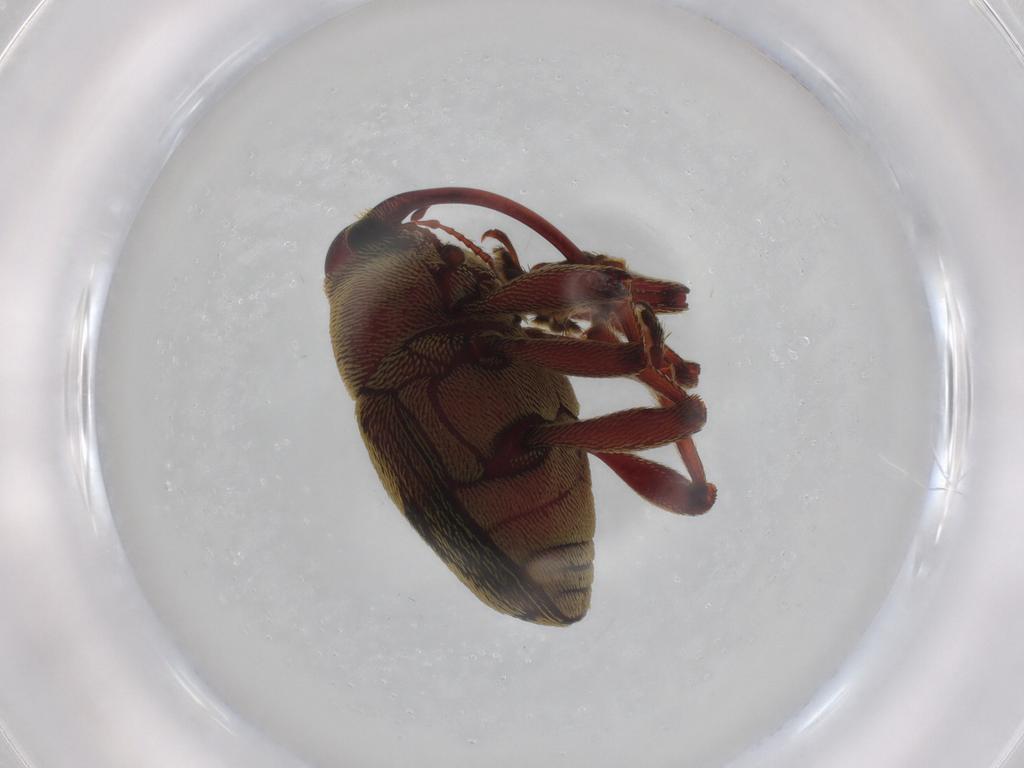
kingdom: Animalia
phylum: Arthropoda
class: Insecta
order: Coleoptera
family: Curculionidae
